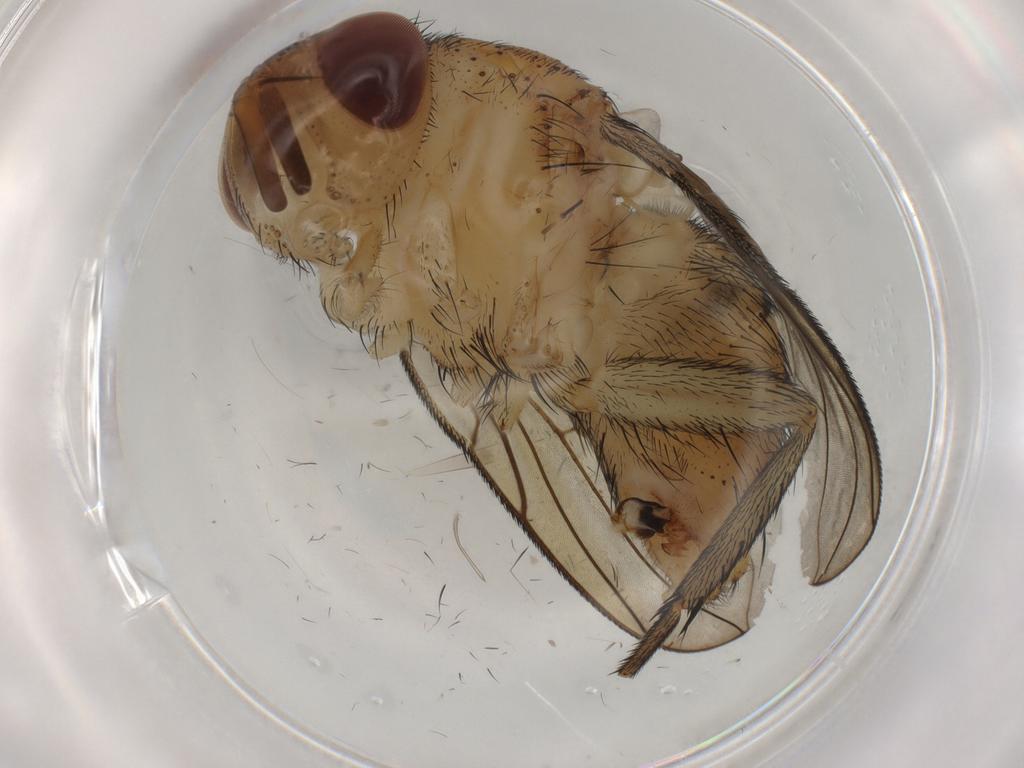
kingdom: Animalia
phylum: Arthropoda
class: Insecta
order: Diptera
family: Calliphoridae
